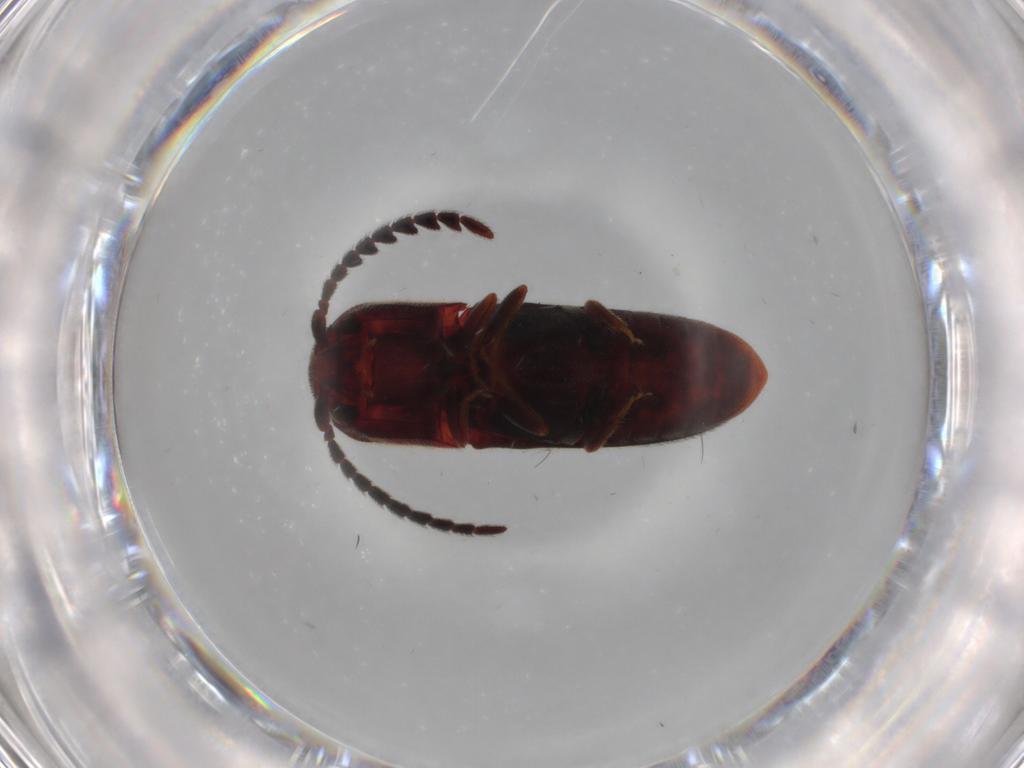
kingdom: Animalia
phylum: Arthropoda
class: Insecta
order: Coleoptera
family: Eucnemidae
